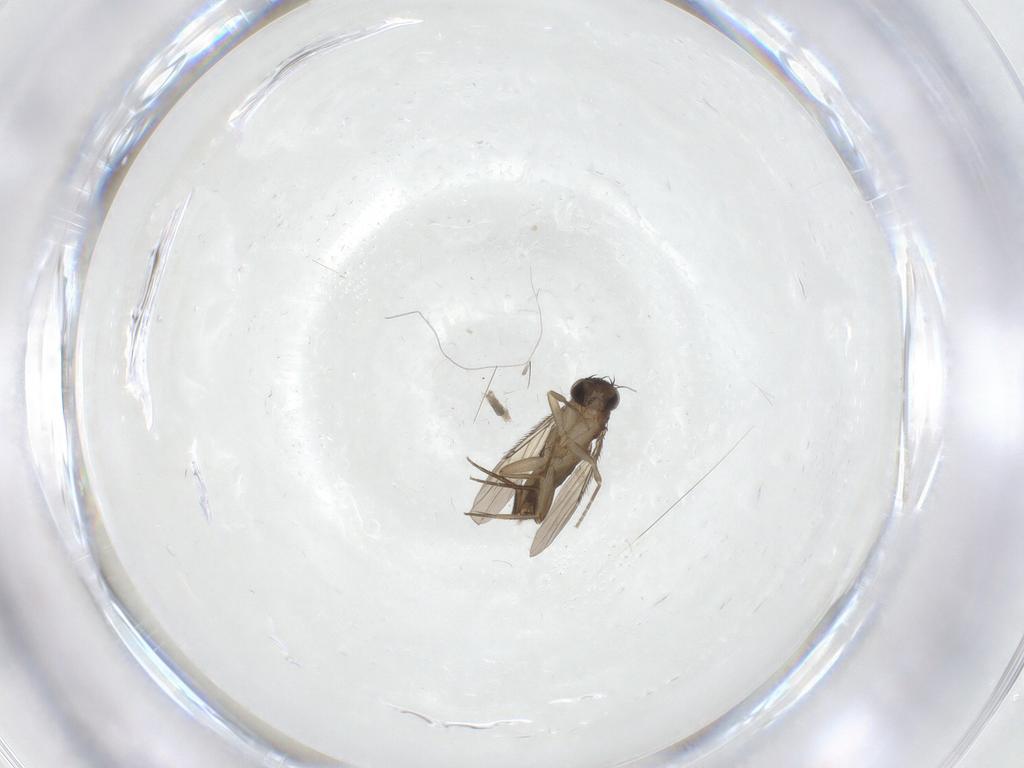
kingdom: Animalia
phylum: Arthropoda
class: Insecta
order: Diptera
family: Phoridae
